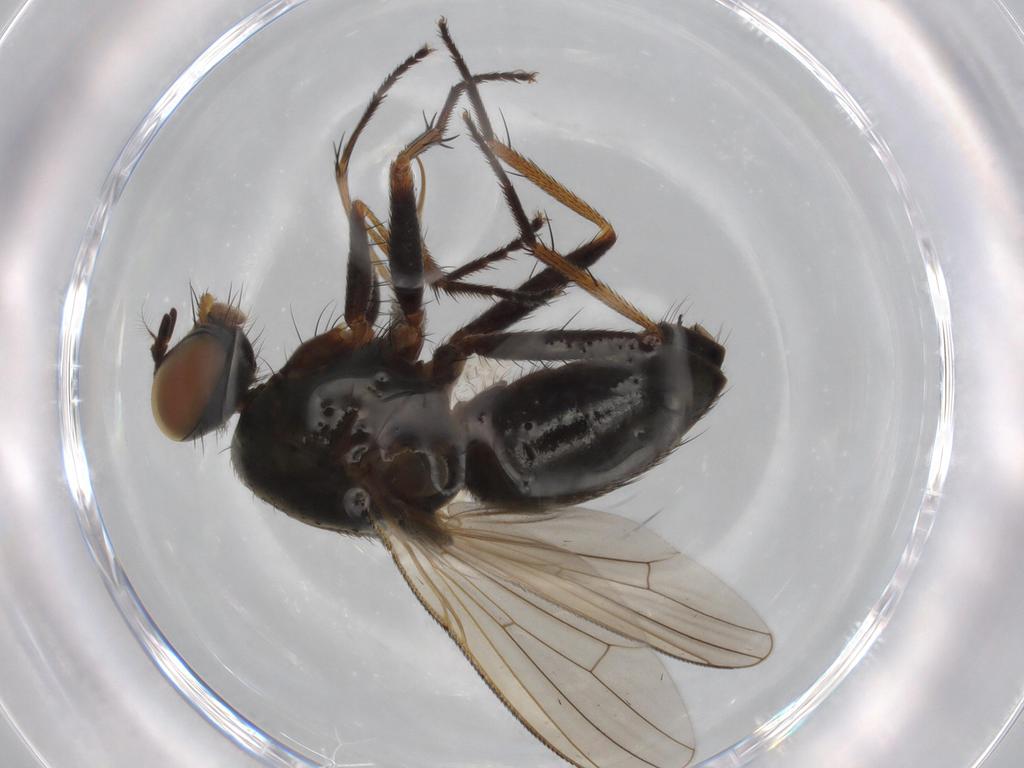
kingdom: Animalia
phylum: Arthropoda
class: Insecta
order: Diptera
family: Muscidae
